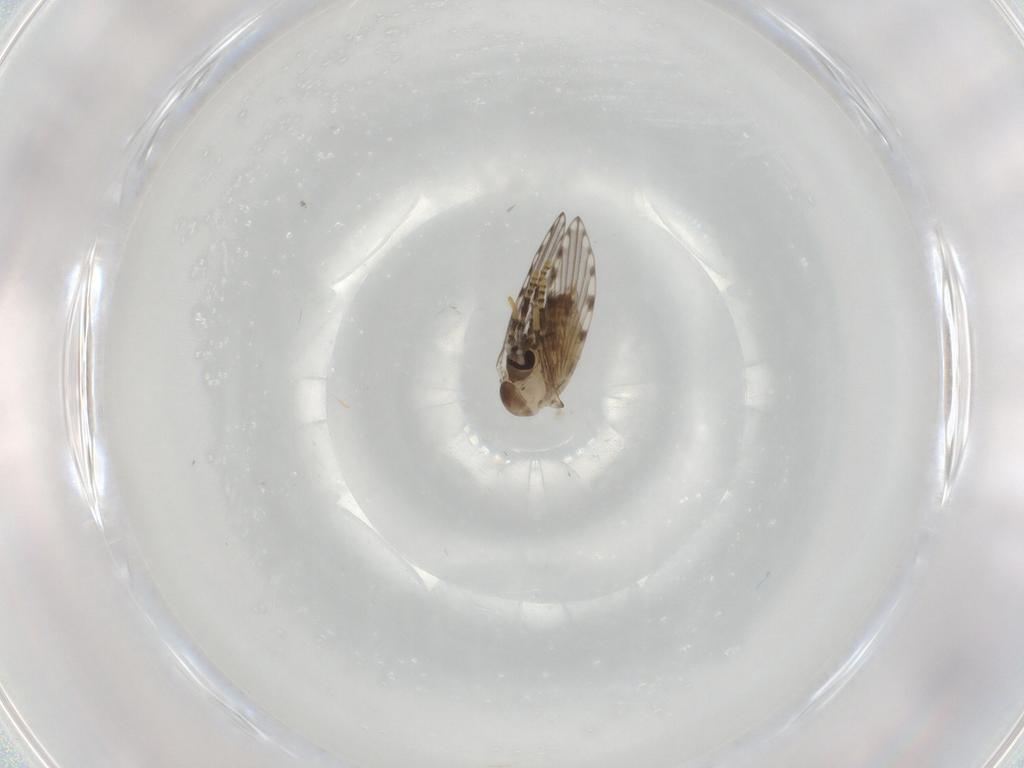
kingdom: Animalia
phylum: Arthropoda
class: Insecta
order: Diptera
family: Psychodidae
